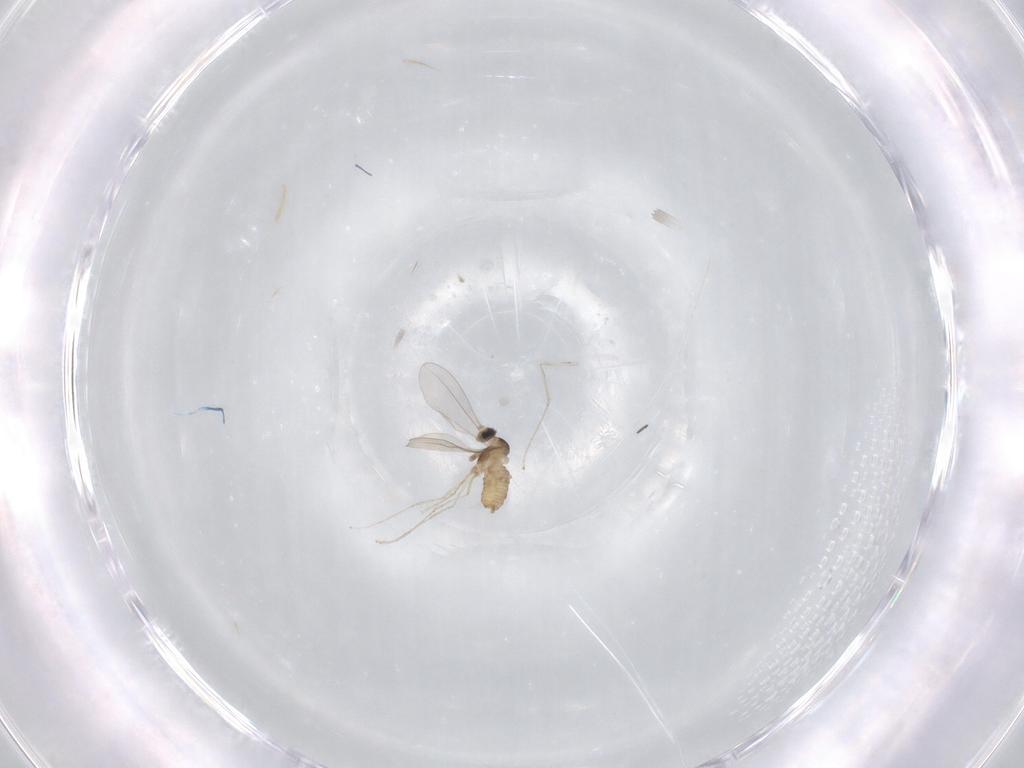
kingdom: Animalia
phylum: Arthropoda
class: Insecta
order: Diptera
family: Cecidomyiidae
